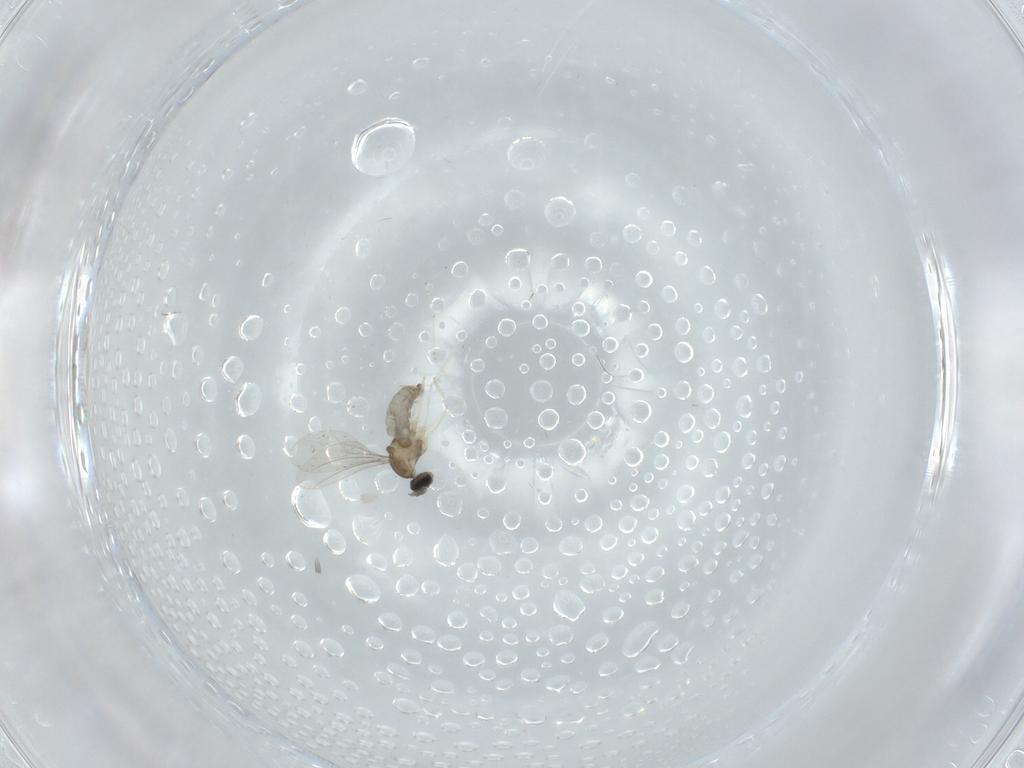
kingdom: Animalia
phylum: Arthropoda
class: Insecta
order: Diptera
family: Cecidomyiidae
